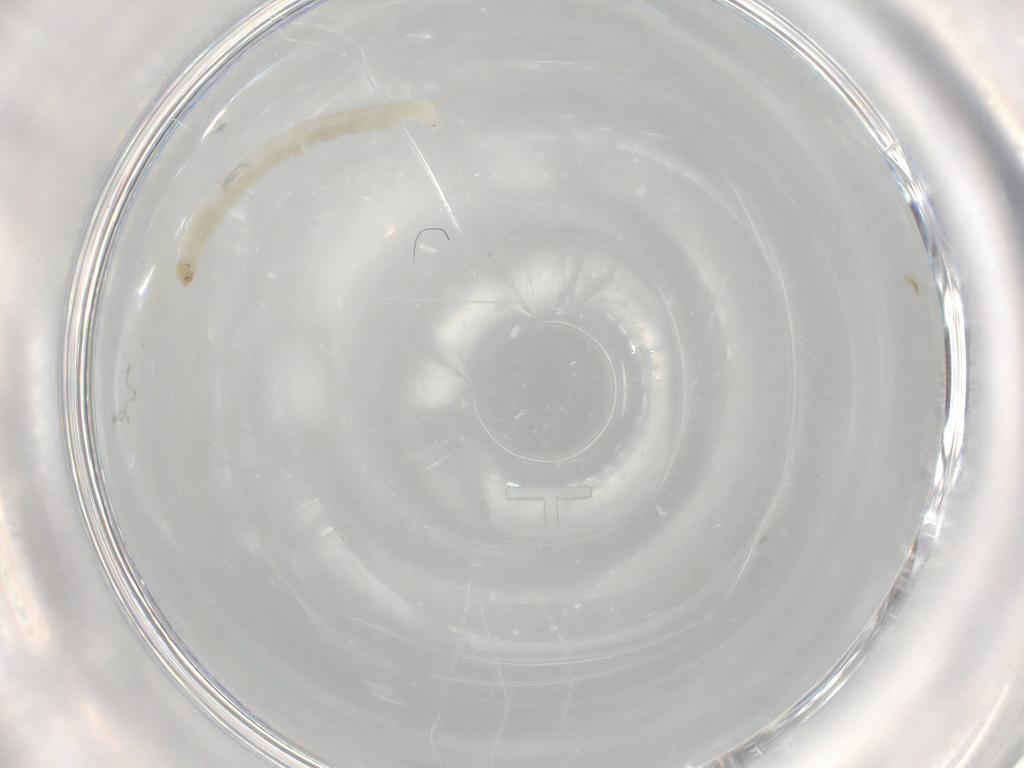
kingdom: Animalia
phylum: Arthropoda
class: Insecta
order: Diptera
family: Chironomidae
